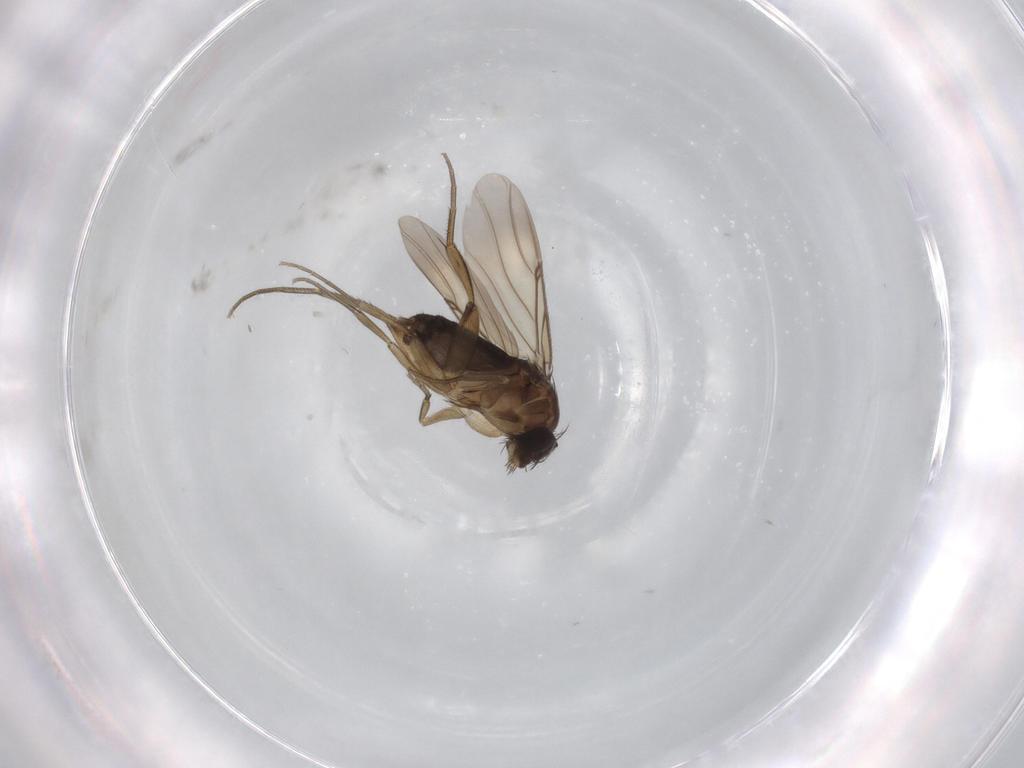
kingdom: Animalia
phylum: Arthropoda
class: Insecta
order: Diptera
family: Phoridae
